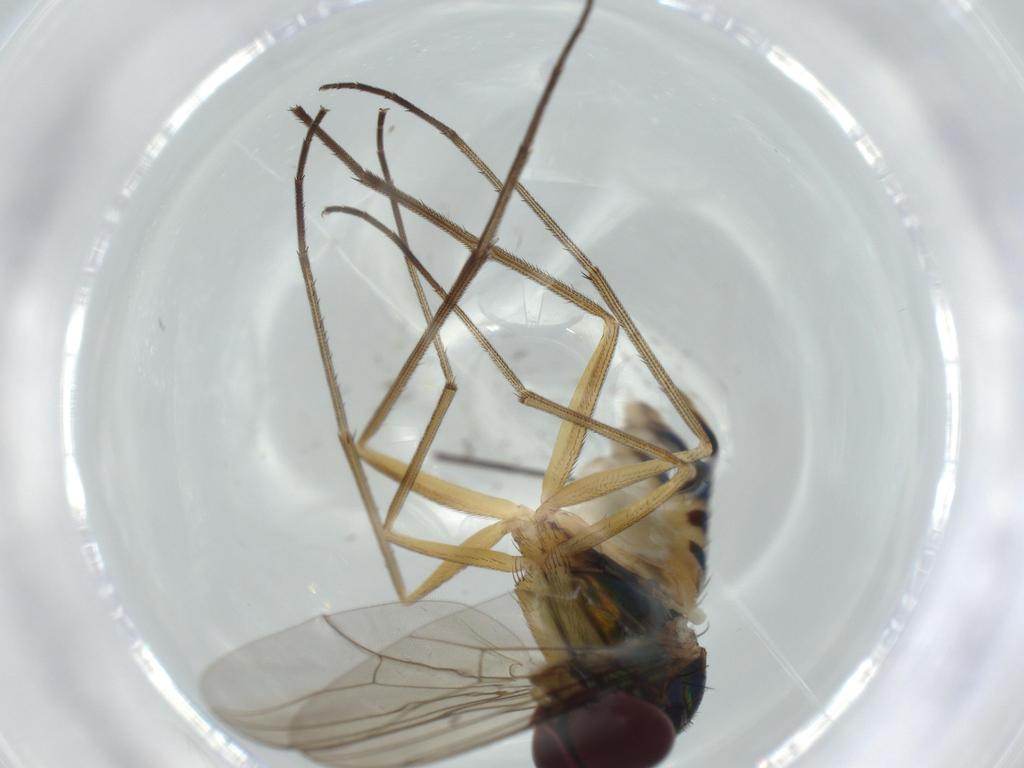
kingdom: Animalia
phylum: Arthropoda
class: Insecta
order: Diptera
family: Dolichopodidae
